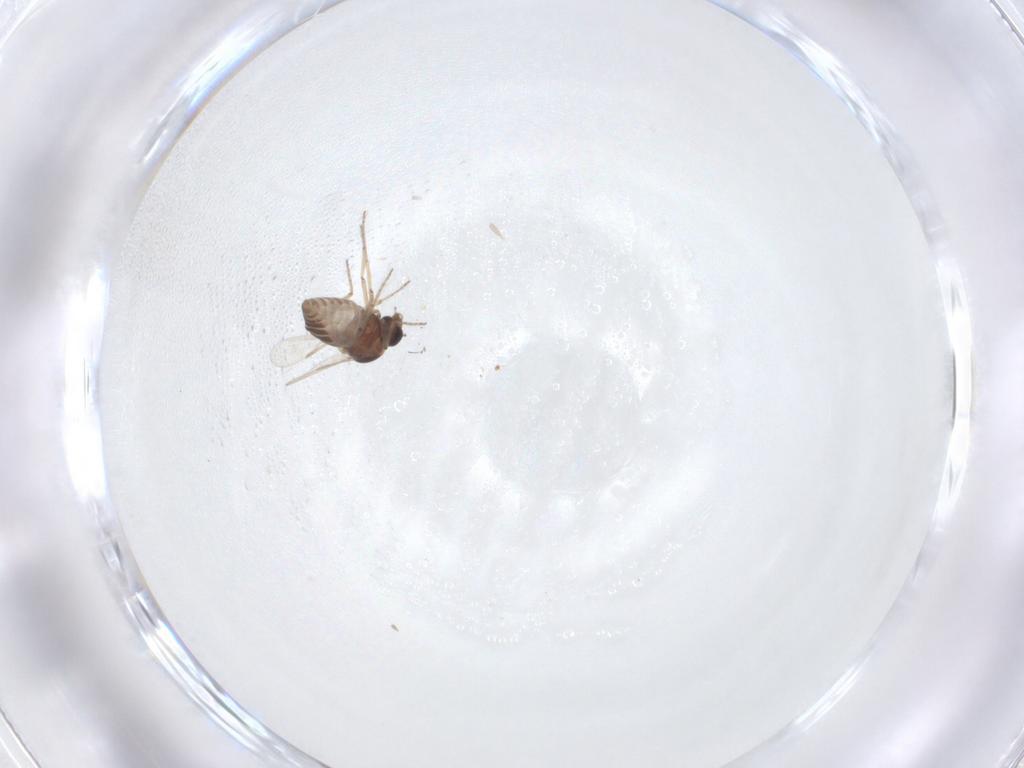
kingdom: Animalia
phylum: Arthropoda
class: Insecta
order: Diptera
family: Ceratopogonidae
